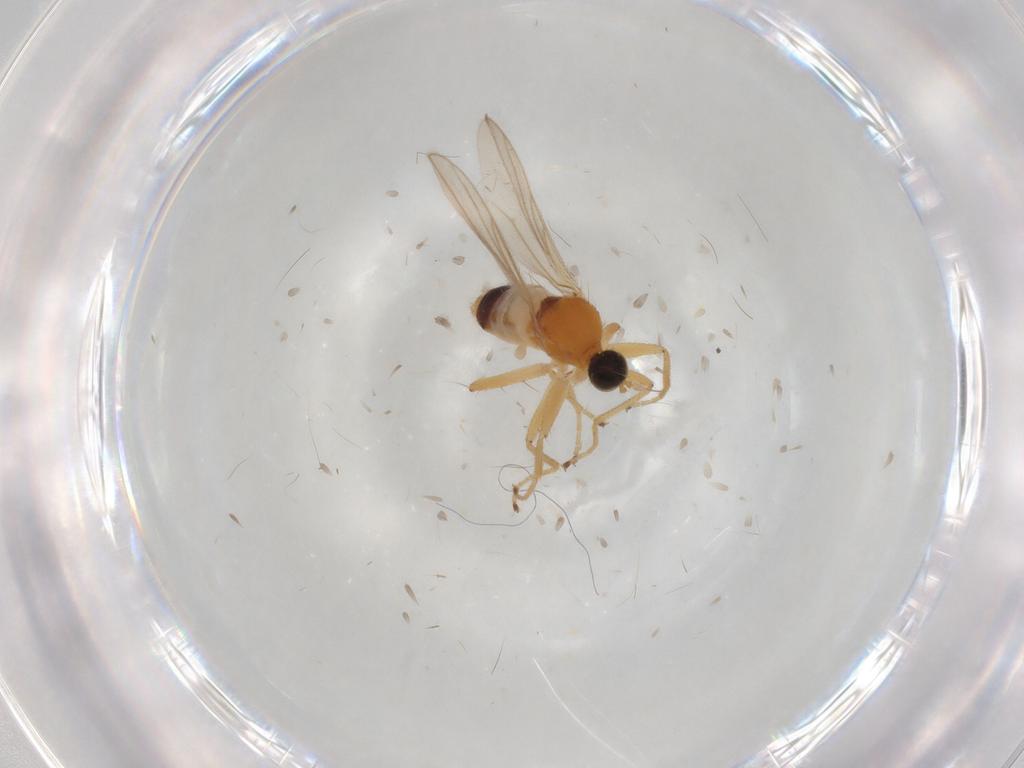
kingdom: Animalia
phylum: Arthropoda
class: Insecta
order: Diptera
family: Hybotidae
